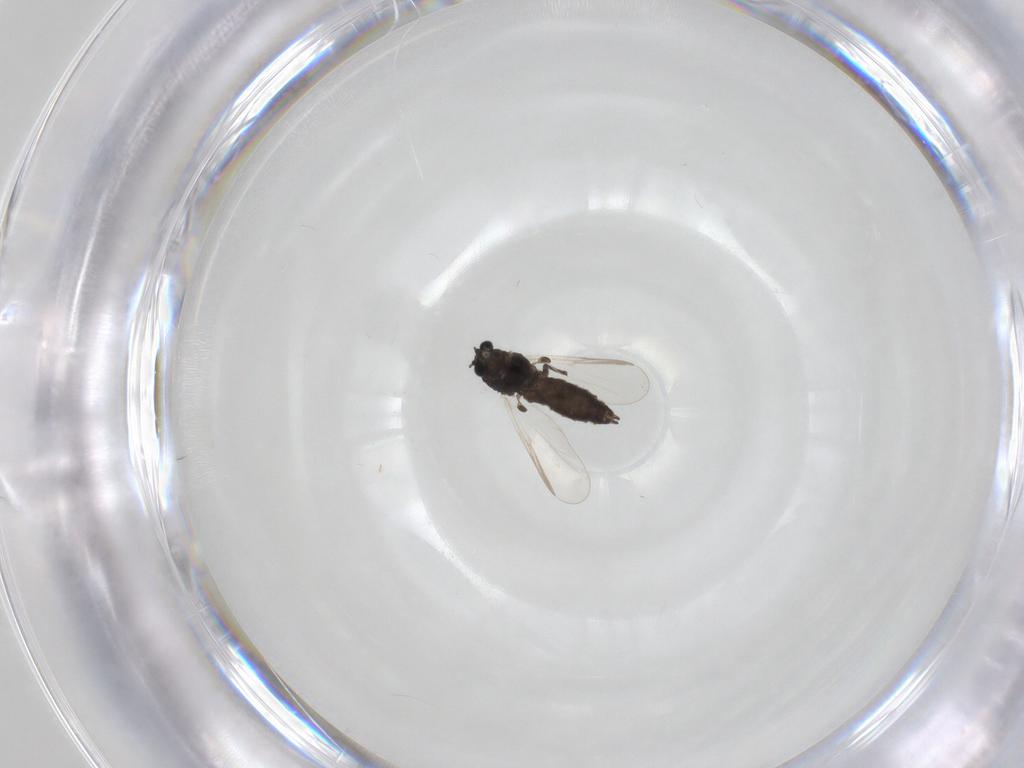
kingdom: Animalia
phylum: Arthropoda
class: Insecta
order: Diptera
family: Chironomidae
